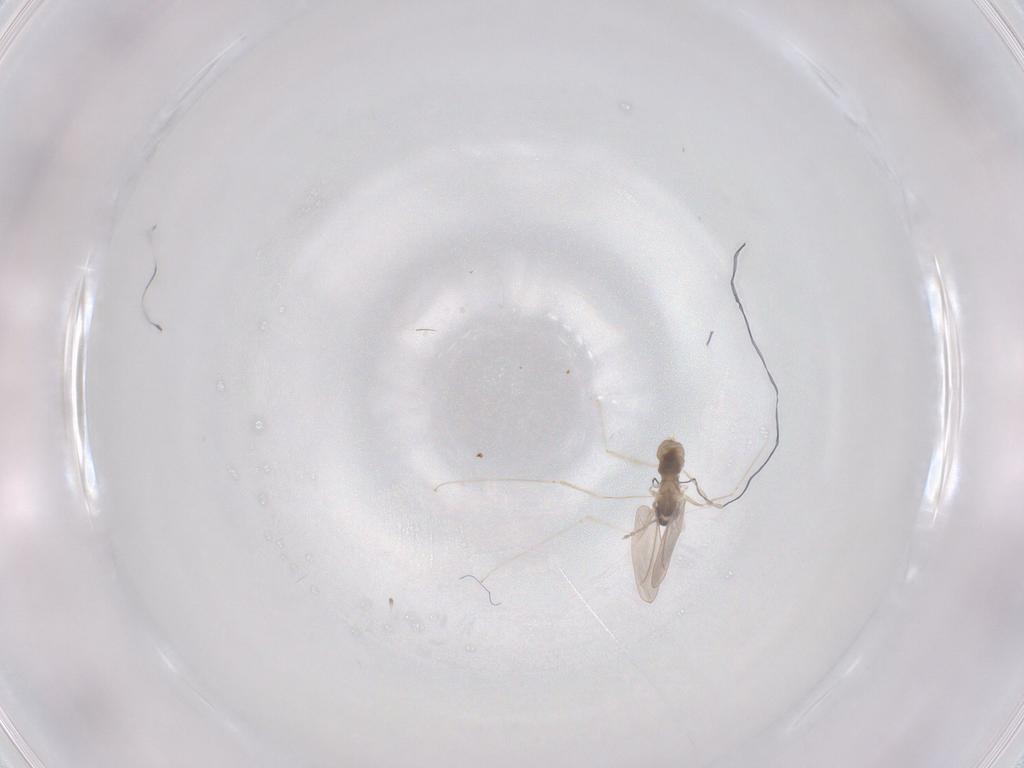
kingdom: Animalia
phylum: Arthropoda
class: Insecta
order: Diptera
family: Cecidomyiidae
